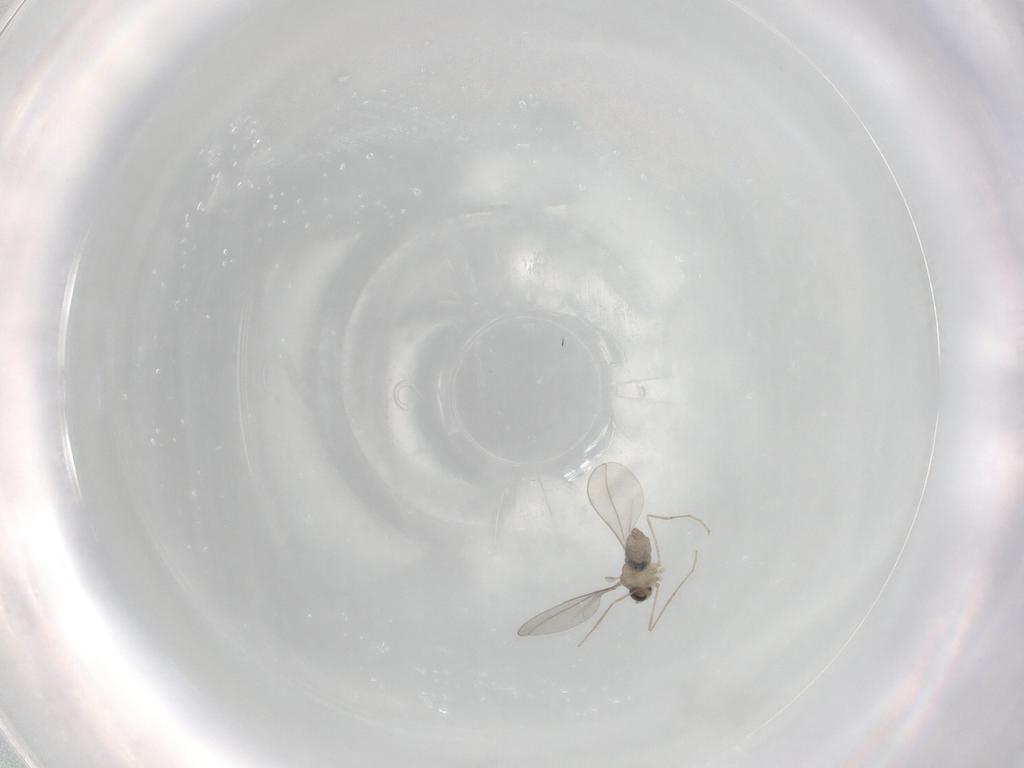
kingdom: Animalia
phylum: Arthropoda
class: Insecta
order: Diptera
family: Cecidomyiidae
